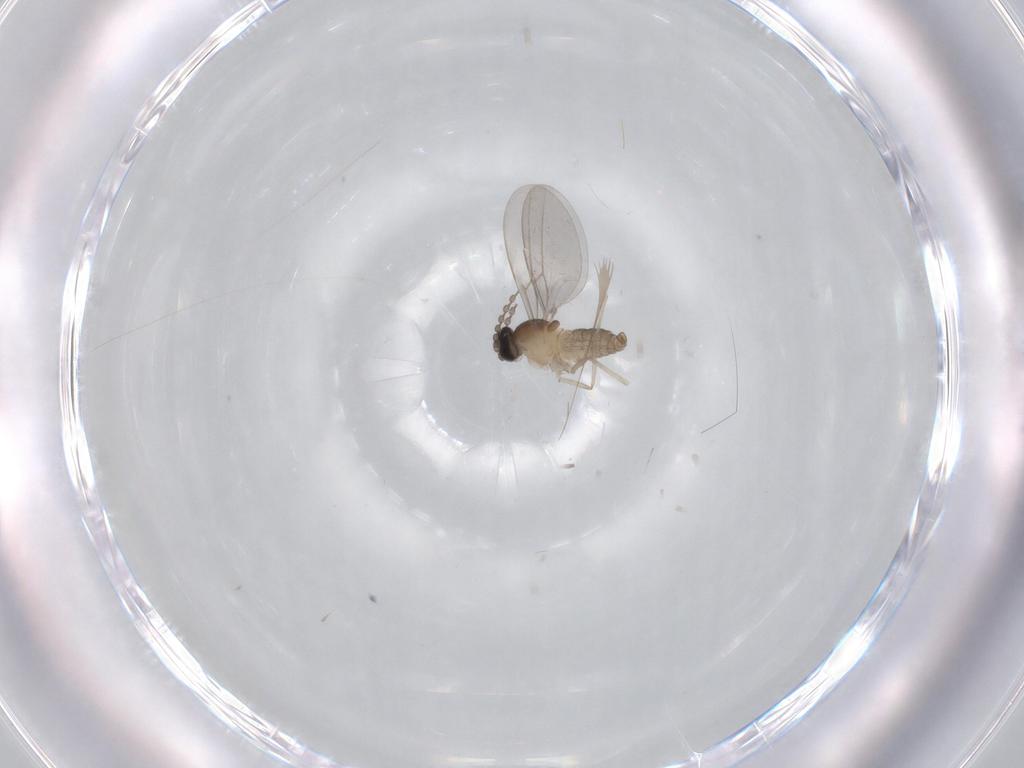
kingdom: Animalia
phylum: Arthropoda
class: Insecta
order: Diptera
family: Cecidomyiidae
